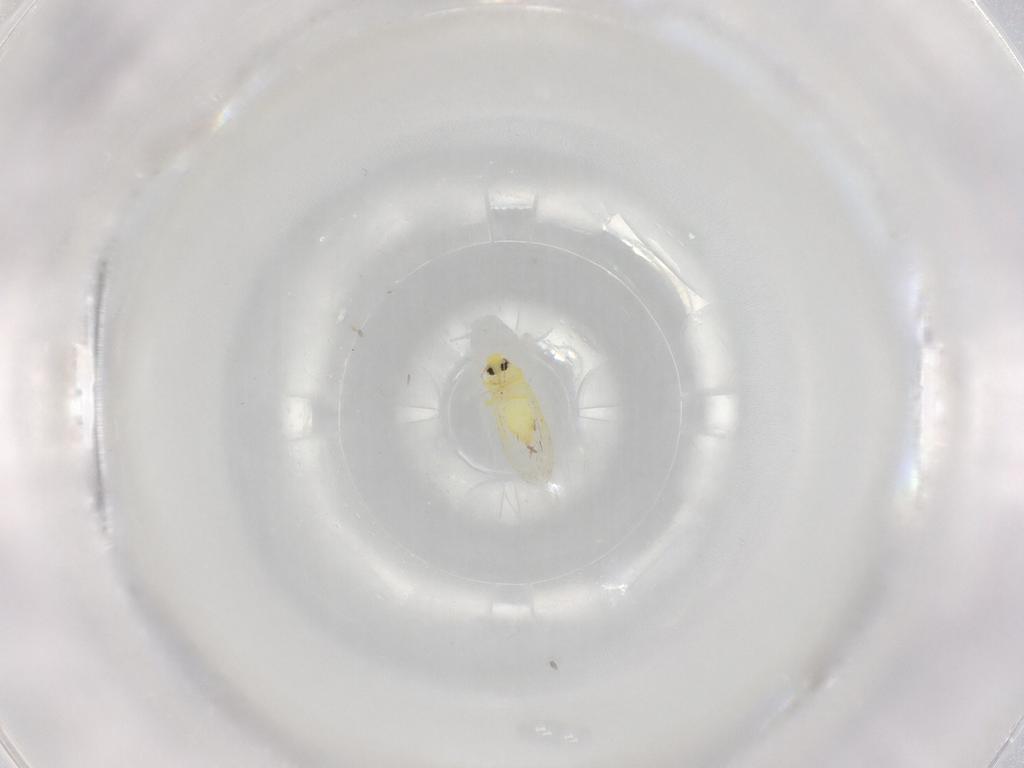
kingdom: Animalia
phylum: Arthropoda
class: Insecta
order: Hemiptera
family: Aleyrodidae
